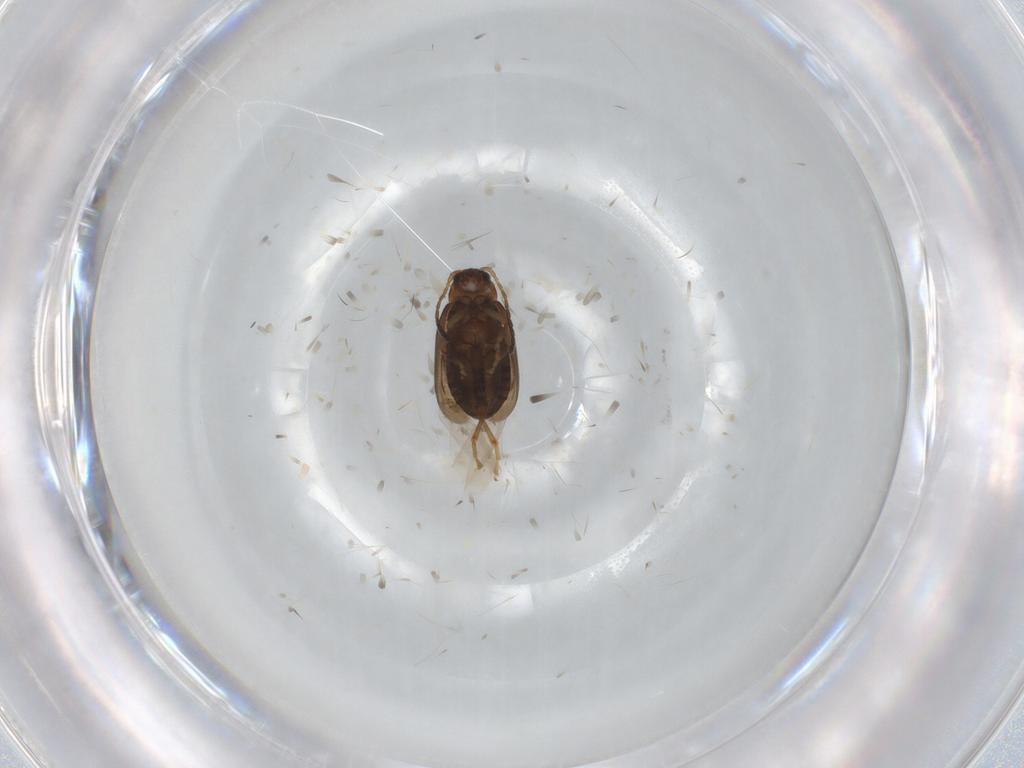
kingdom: Animalia
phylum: Arthropoda
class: Insecta
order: Coleoptera
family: Chrysomelidae
